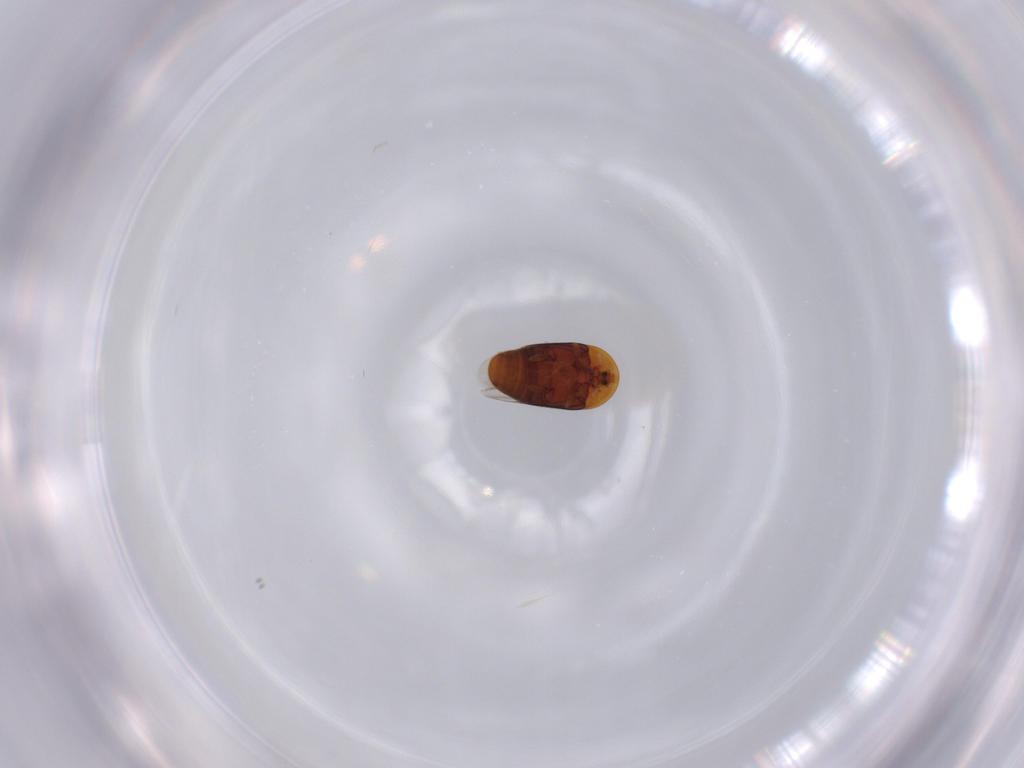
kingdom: Animalia
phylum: Arthropoda
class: Insecta
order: Coleoptera
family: Corylophidae
